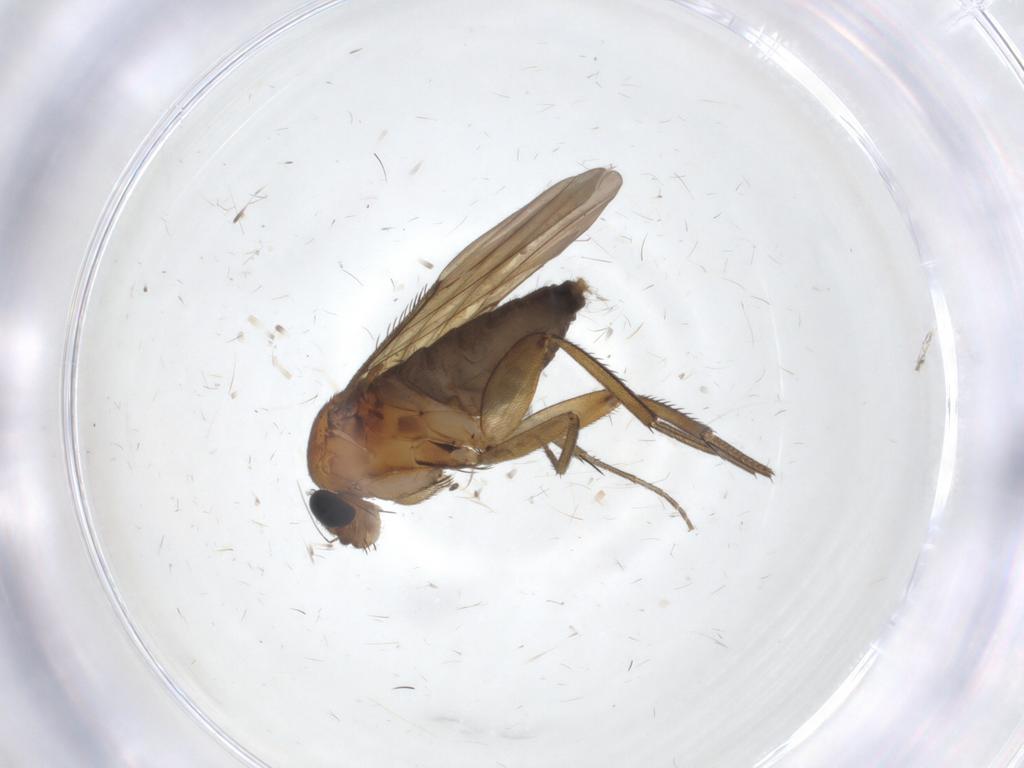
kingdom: Animalia
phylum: Arthropoda
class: Insecta
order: Diptera
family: Phoridae
